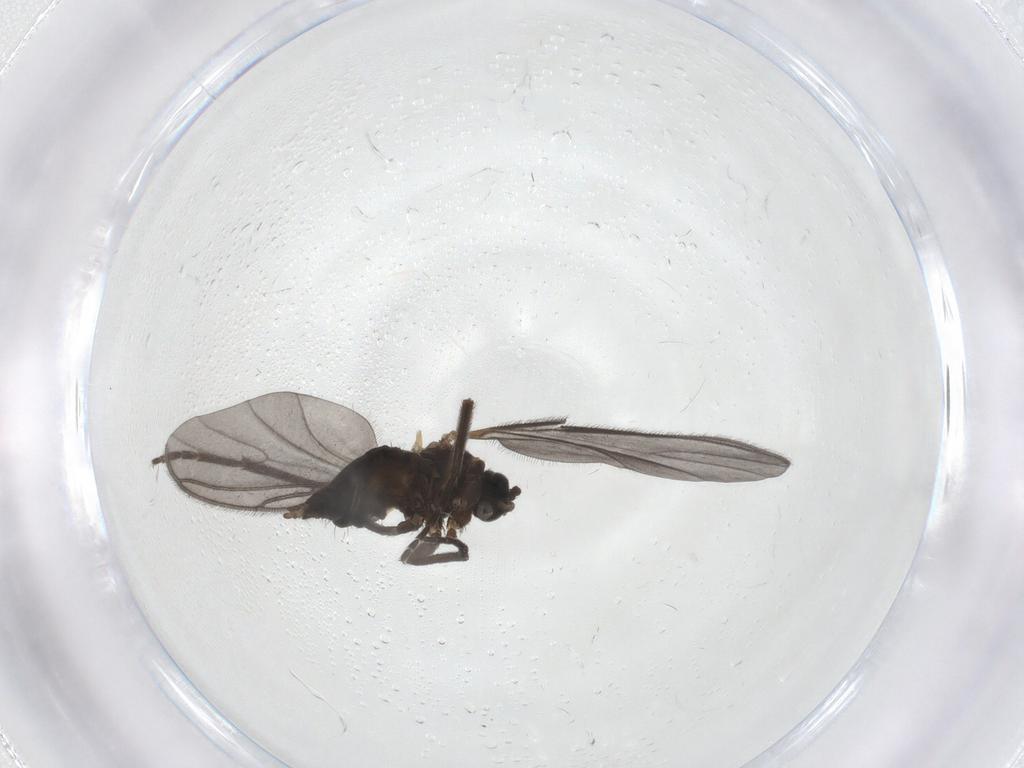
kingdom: Animalia
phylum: Arthropoda
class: Insecta
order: Diptera
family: Sciaridae
